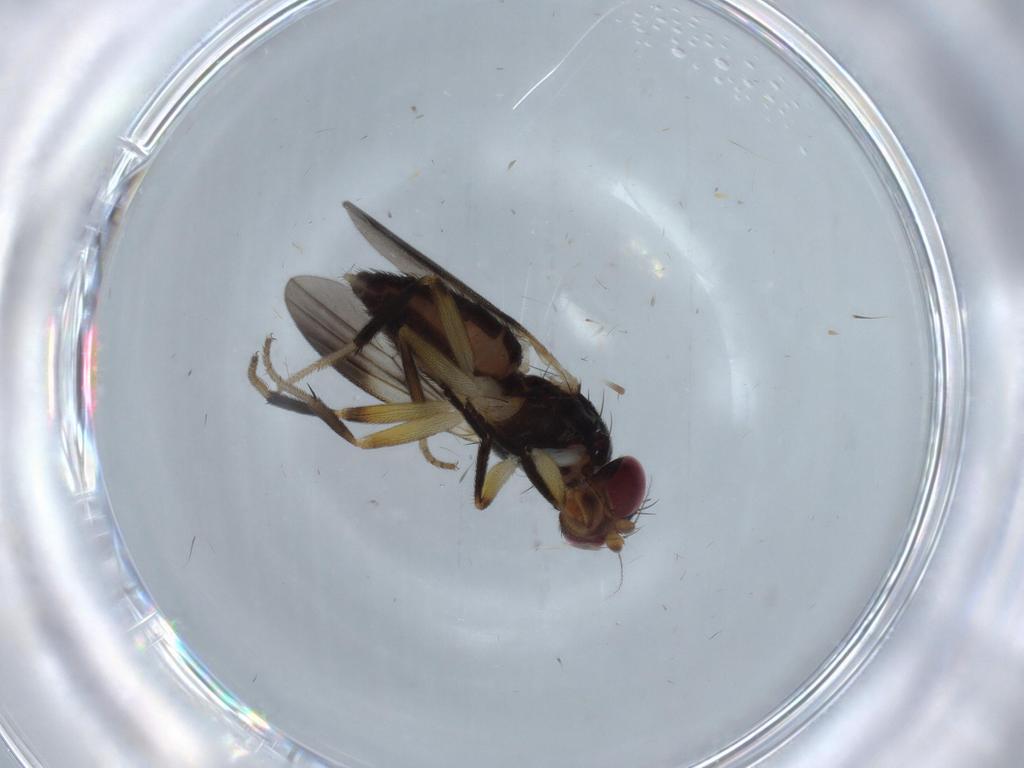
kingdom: Animalia
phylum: Arthropoda
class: Insecta
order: Diptera
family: Clusiidae
